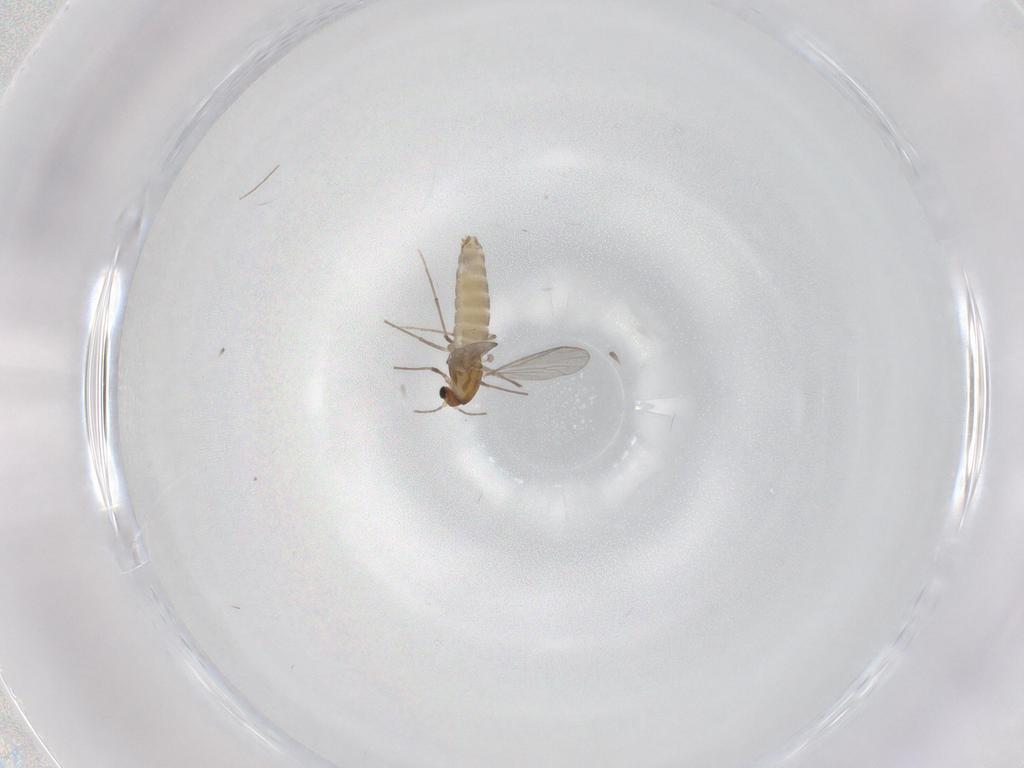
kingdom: Animalia
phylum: Arthropoda
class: Insecta
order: Diptera
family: Chironomidae
